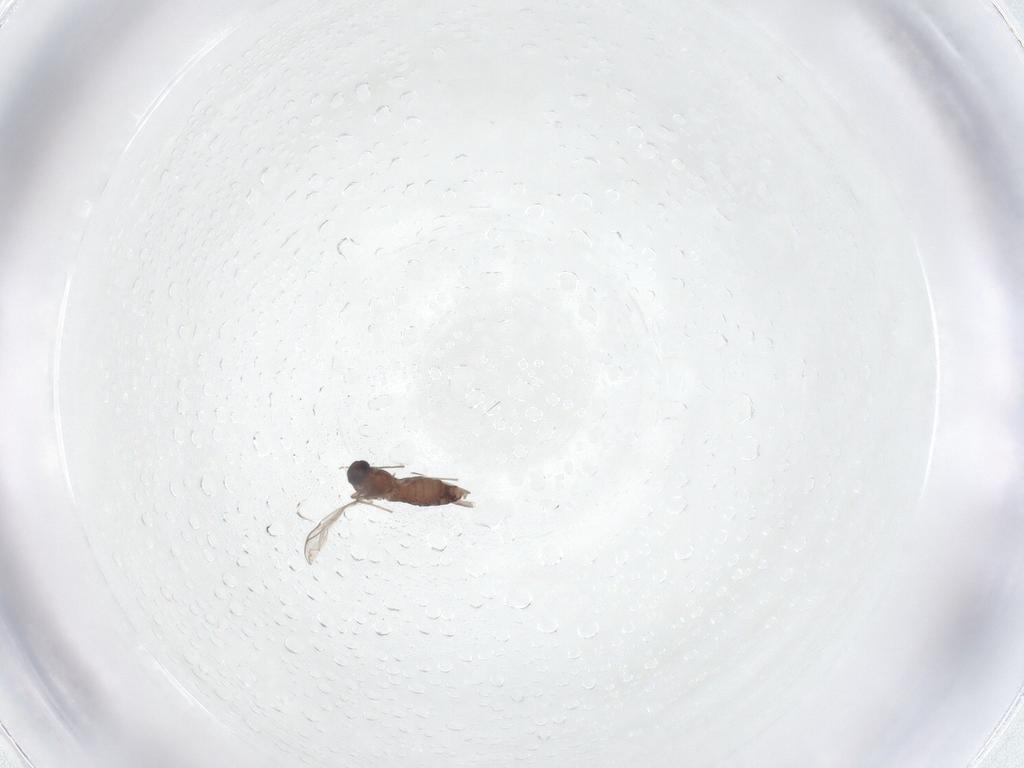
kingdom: Animalia
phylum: Arthropoda
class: Insecta
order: Diptera
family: Chironomidae
